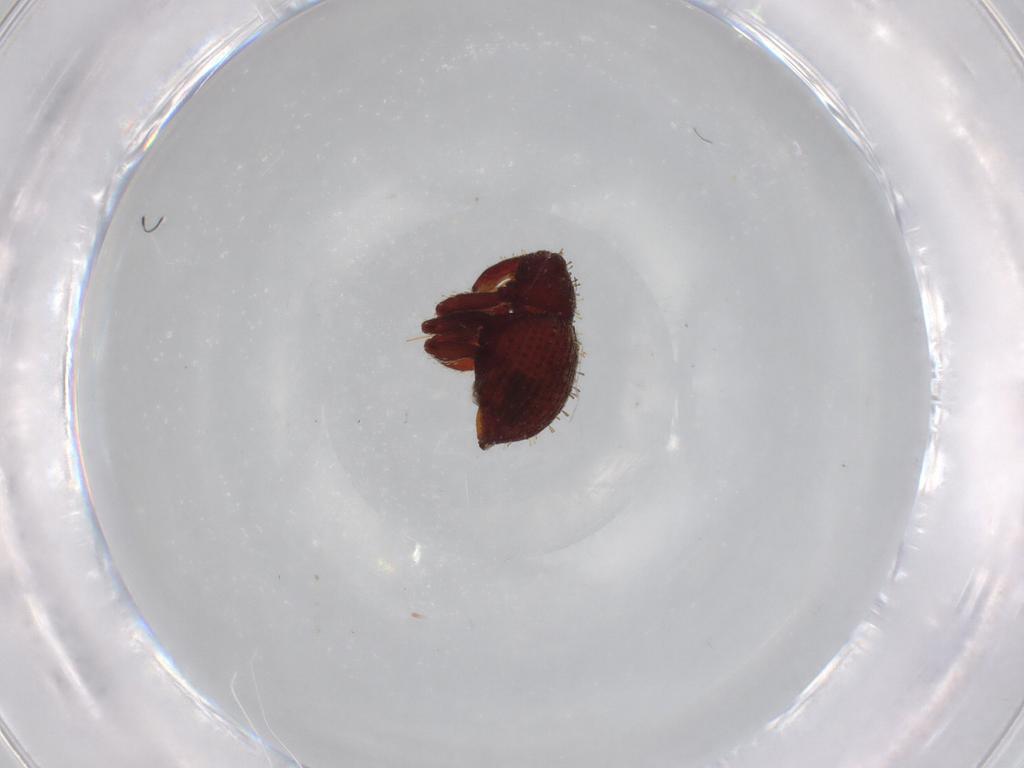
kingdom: Animalia
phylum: Arthropoda
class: Insecta
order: Coleoptera
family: Curculionidae
